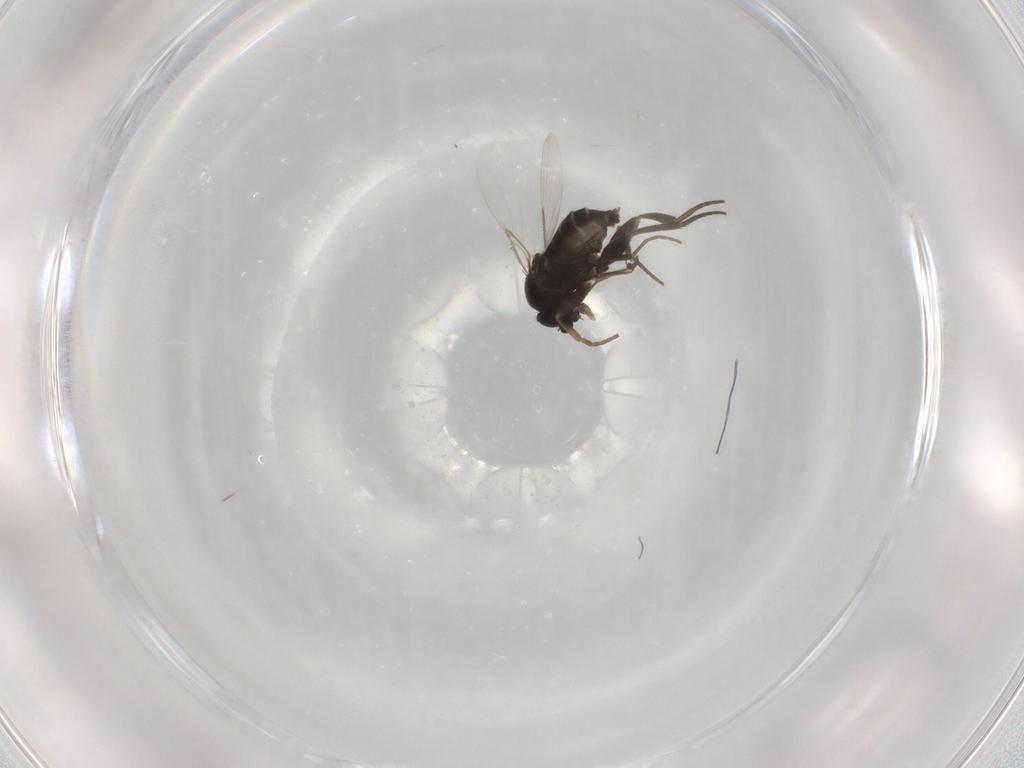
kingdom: Animalia
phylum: Arthropoda
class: Insecta
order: Diptera
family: Phoridae
